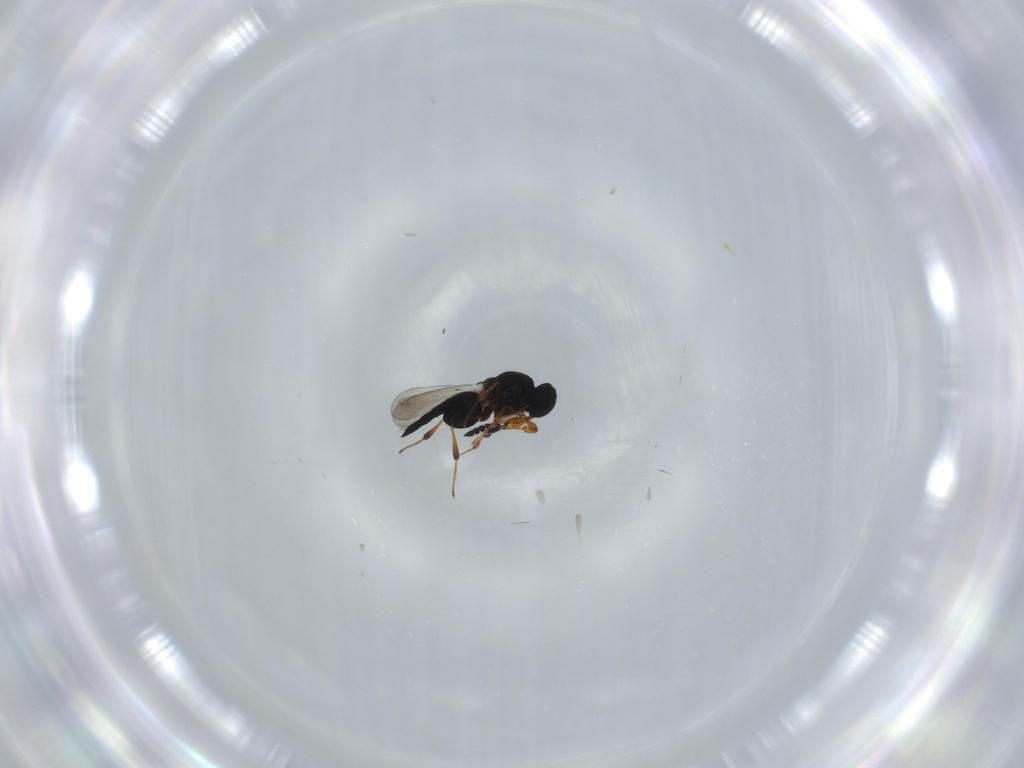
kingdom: Animalia
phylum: Arthropoda
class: Insecta
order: Hymenoptera
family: Platygastridae
